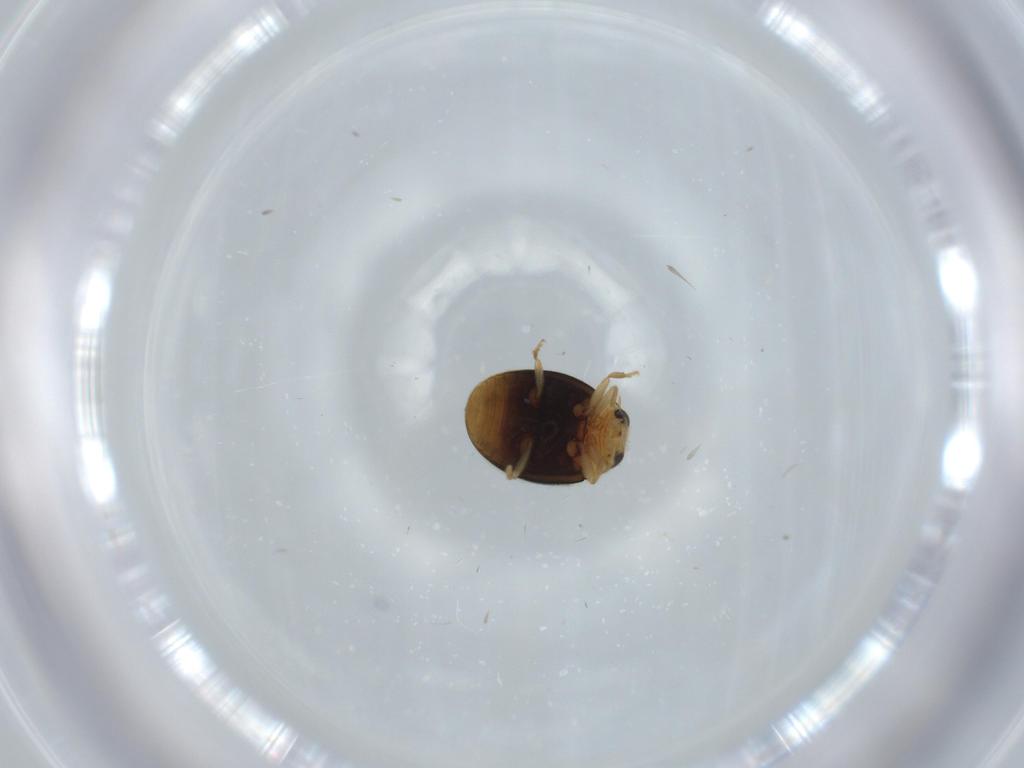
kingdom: Animalia
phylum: Arthropoda
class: Insecta
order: Coleoptera
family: Coccinellidae
